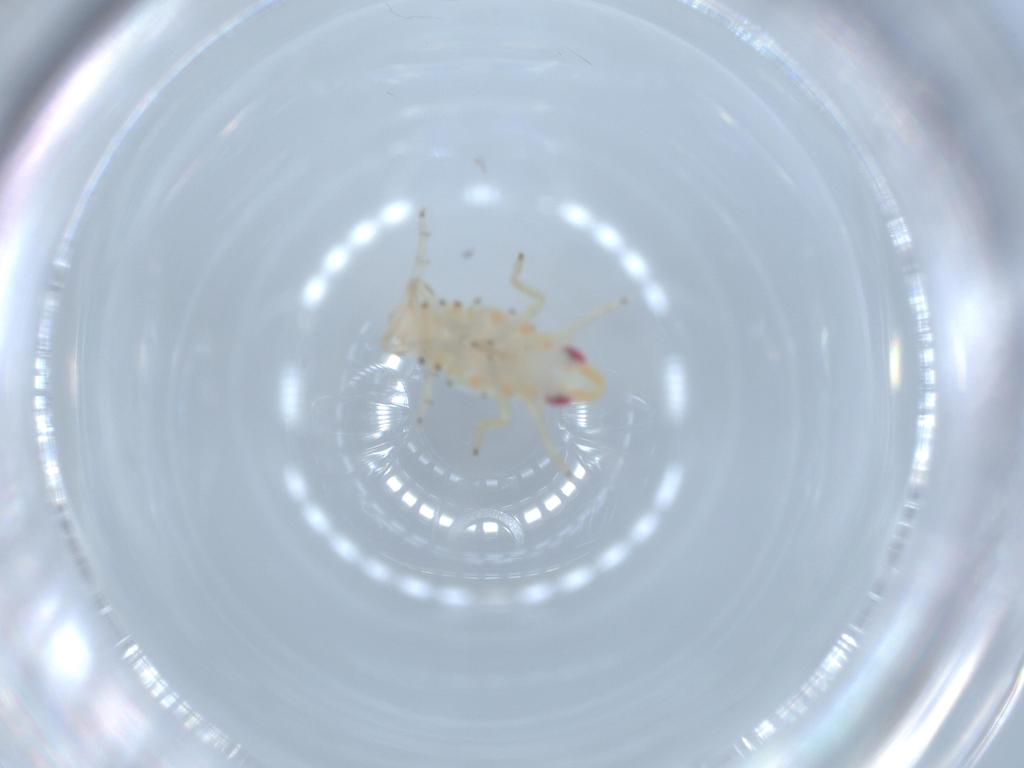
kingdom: Animalia
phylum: Arthropoda
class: Insecta
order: Hemiptera
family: Tropiduchidae
